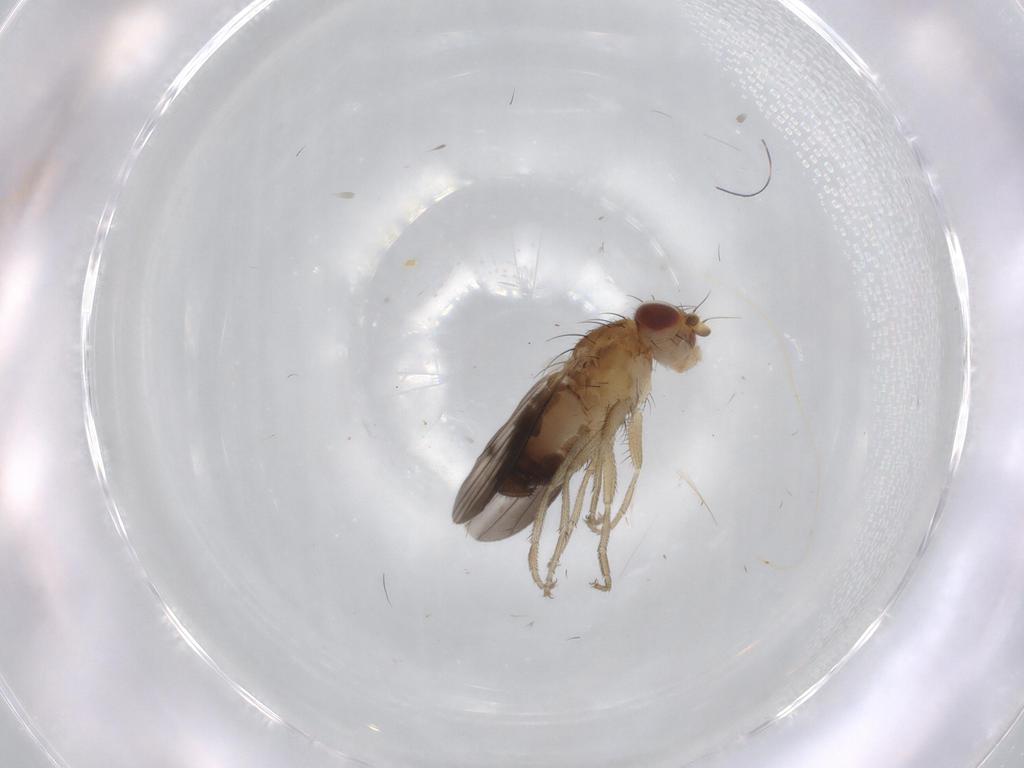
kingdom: Animalia
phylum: Arthropoda
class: Insecta
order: Diptera
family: Heleomyzidae
